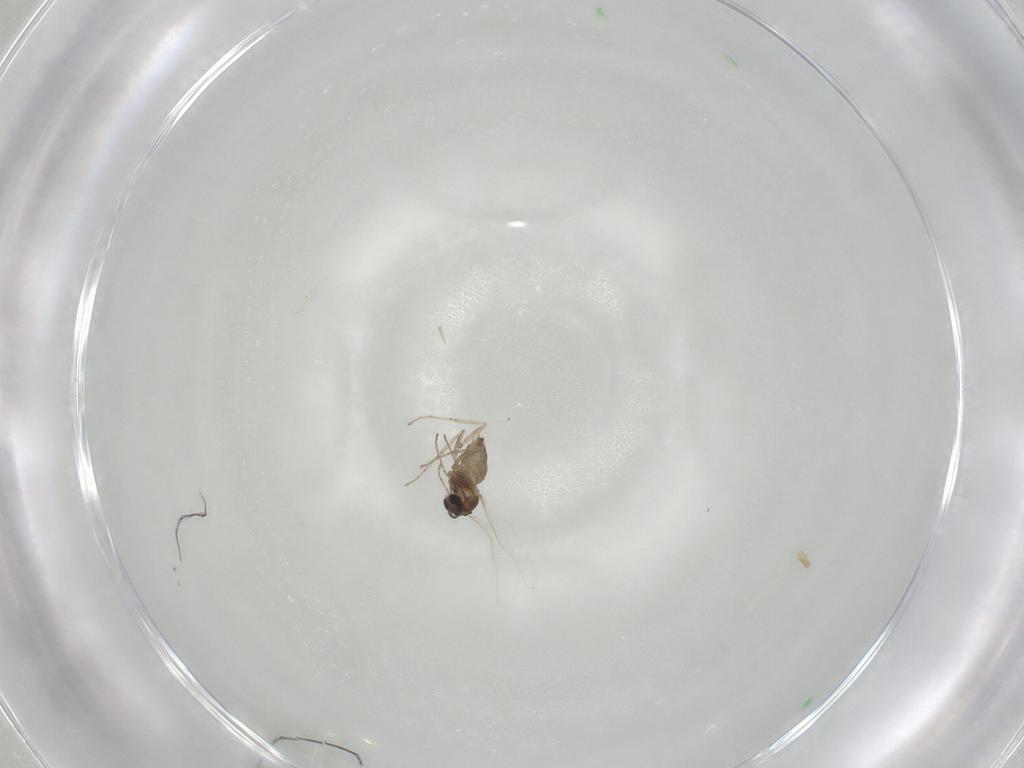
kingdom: Animalia
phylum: Arthropoda
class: Insecta
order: Diptera
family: Cecidomyiidae
